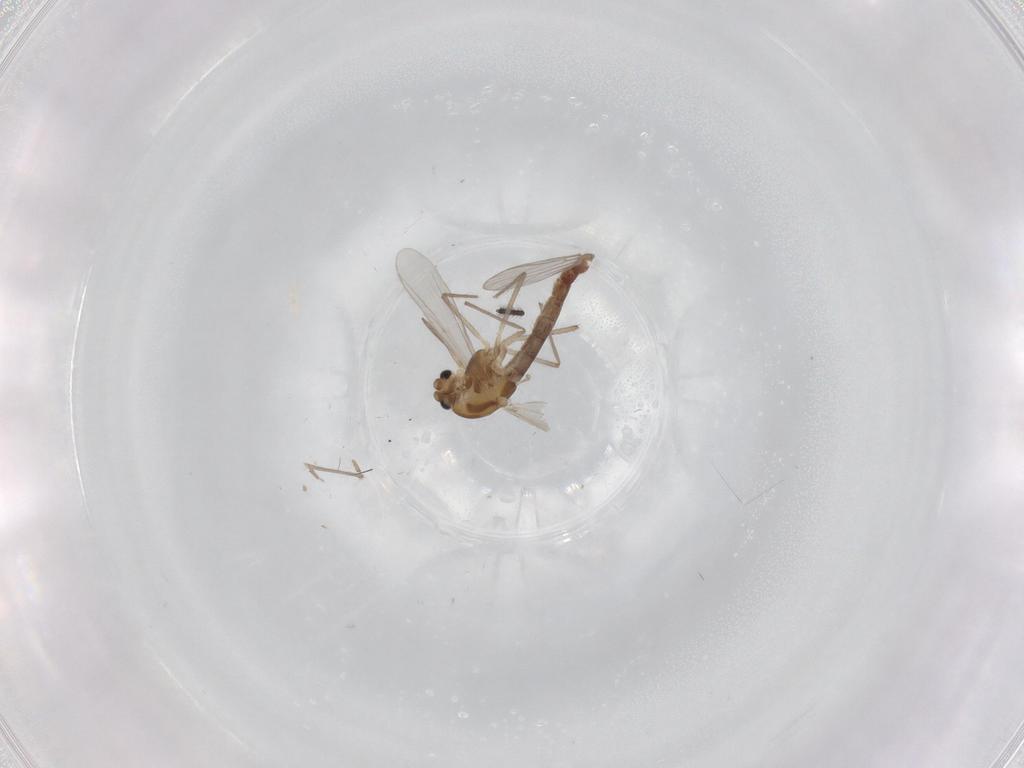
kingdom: Animalia
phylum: Arthropoda
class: Insecta
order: Diptera
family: Chironomidae
